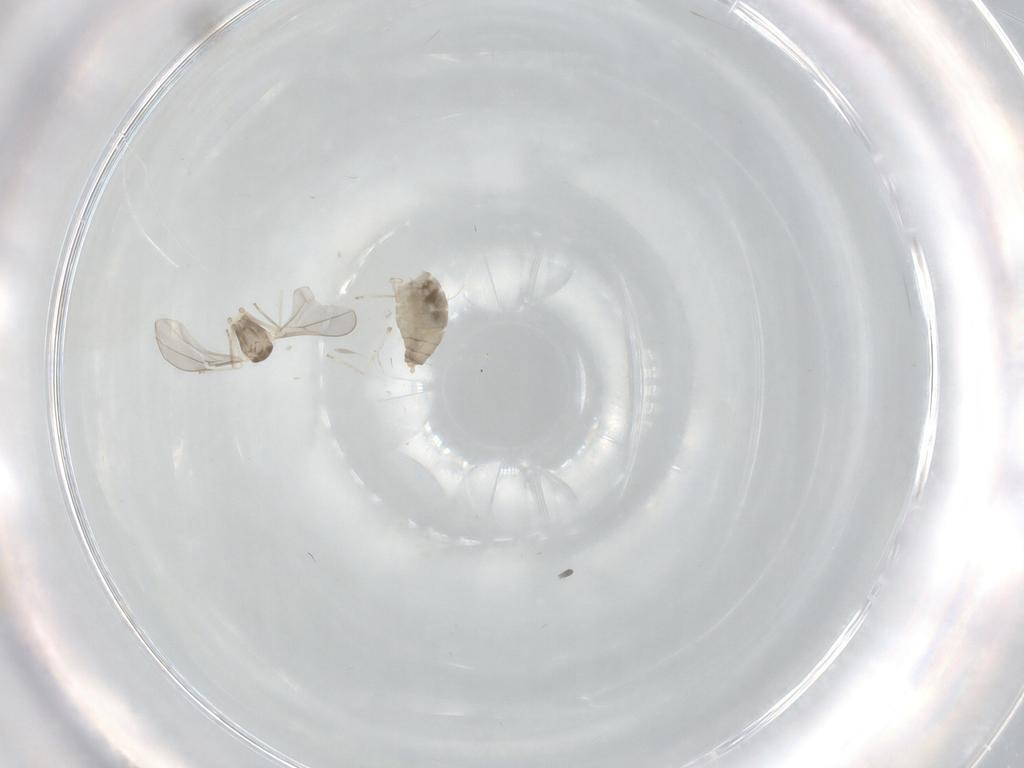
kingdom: Animalia
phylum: Arthropoda
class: Insecta
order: Diptera
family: Cecidomyiidae
